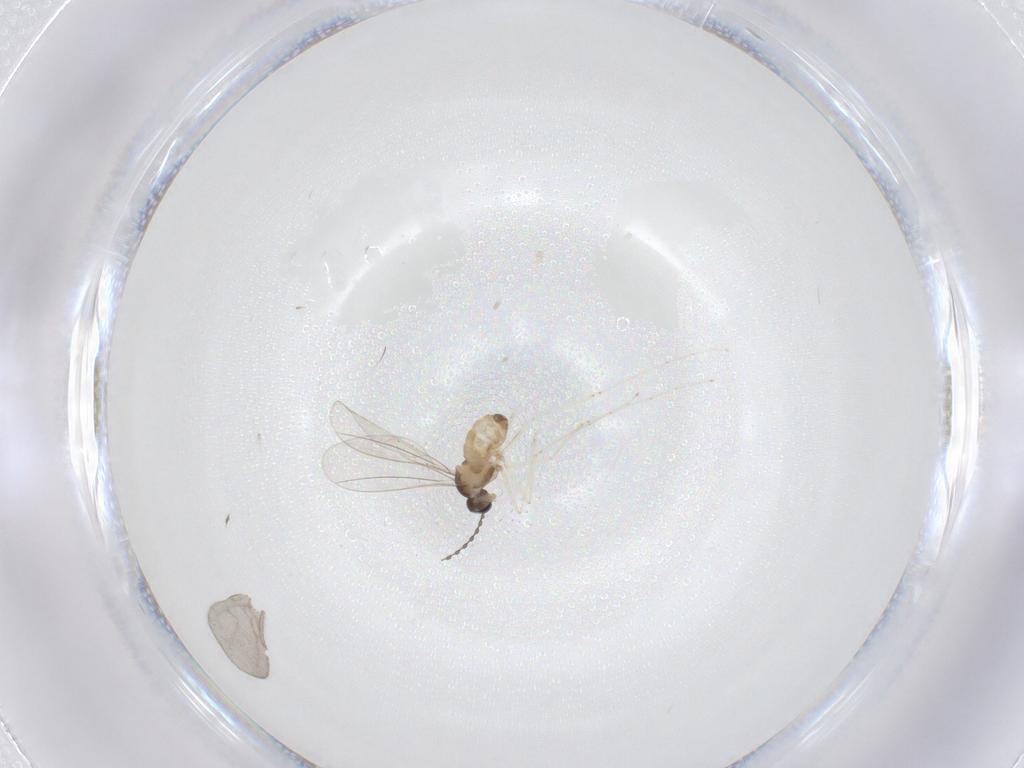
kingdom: Animalia
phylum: Arthropoda
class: Insecta
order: Diptera
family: Cecidomyiidae
